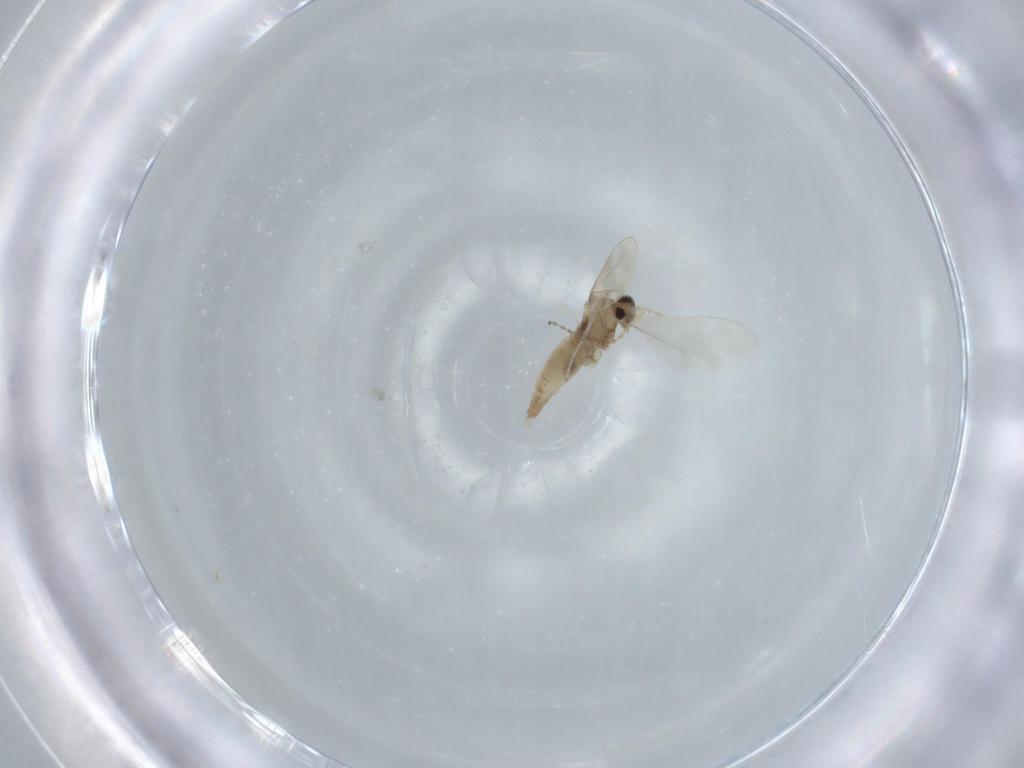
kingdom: Animalia
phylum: Arthropoda
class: Insecta
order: Diptera
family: Cecidomyiidae
